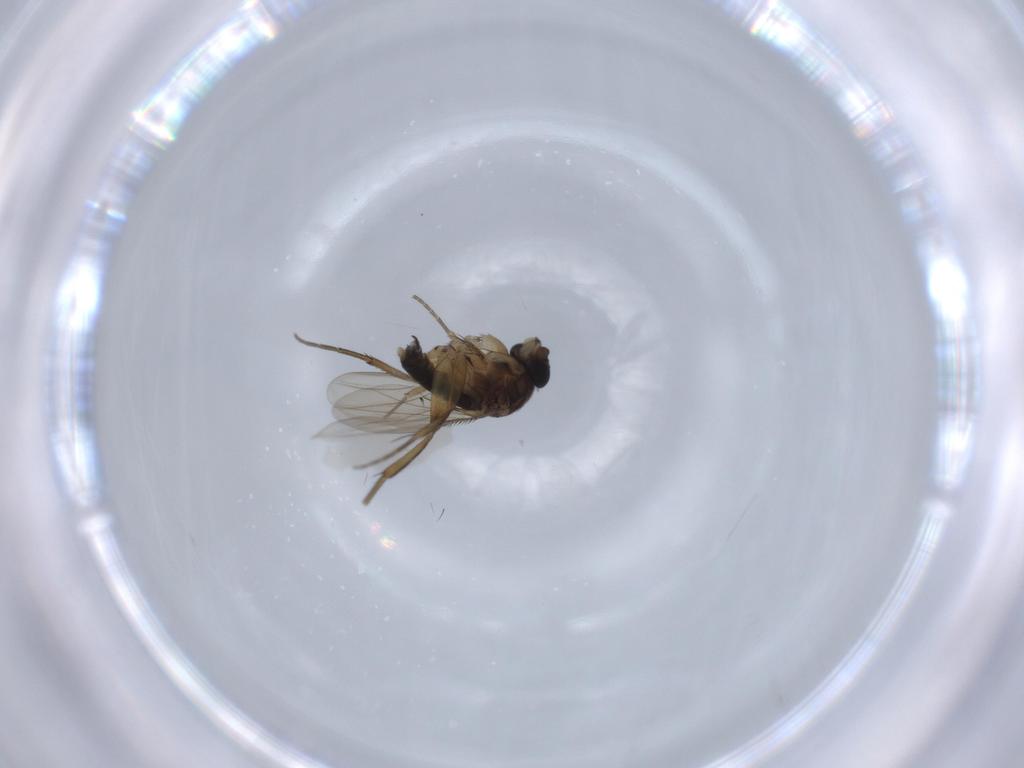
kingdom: Animalia
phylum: Arthropoda
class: Insecta
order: Diptera
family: Phoridae
